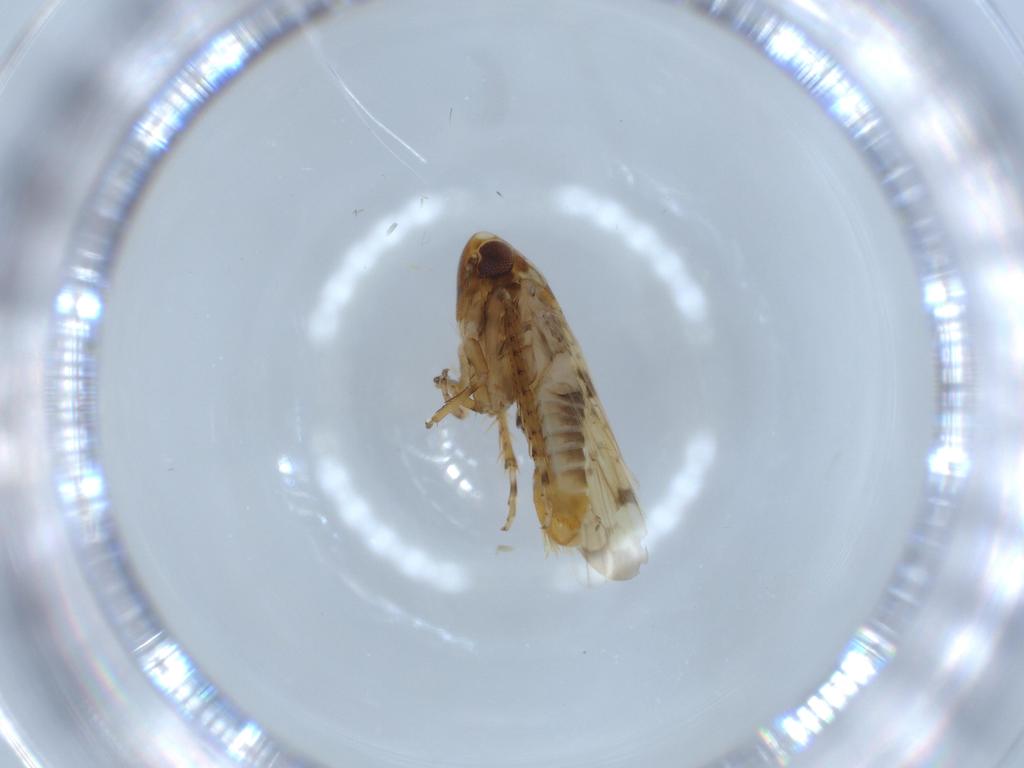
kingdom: Animalia
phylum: Arthropoda
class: Insecta
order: Hemiptera
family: Cicadellidae
